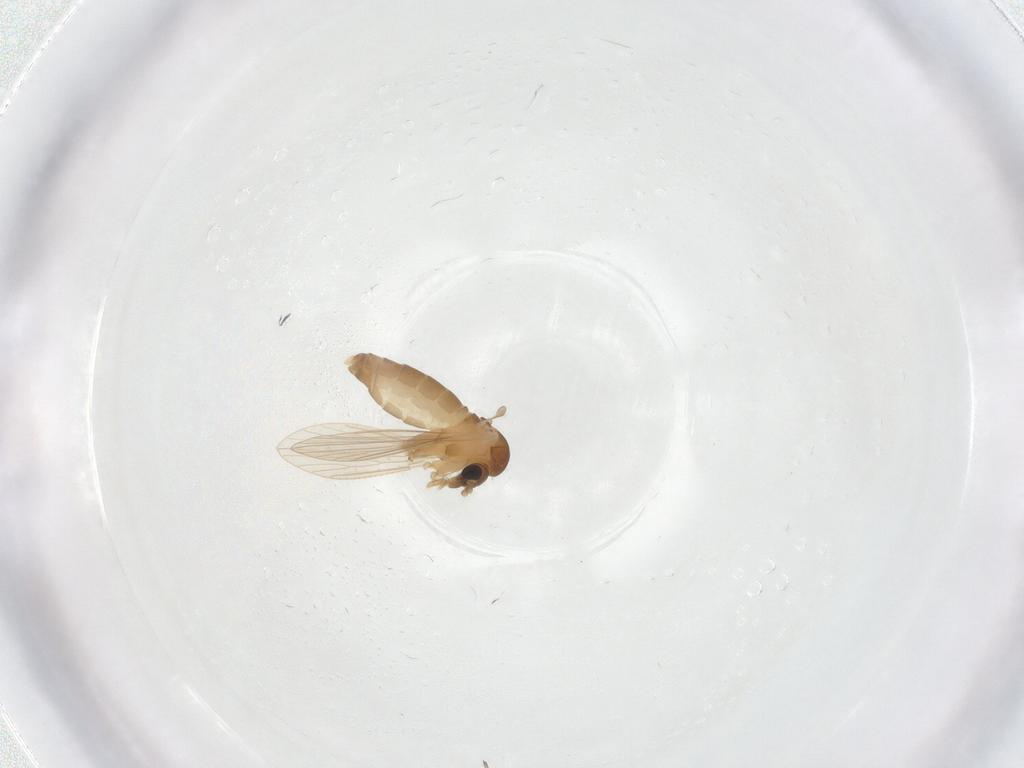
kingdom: Animalia
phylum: Arthropoda
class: Insecta
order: Diptera
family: Psychodidae
